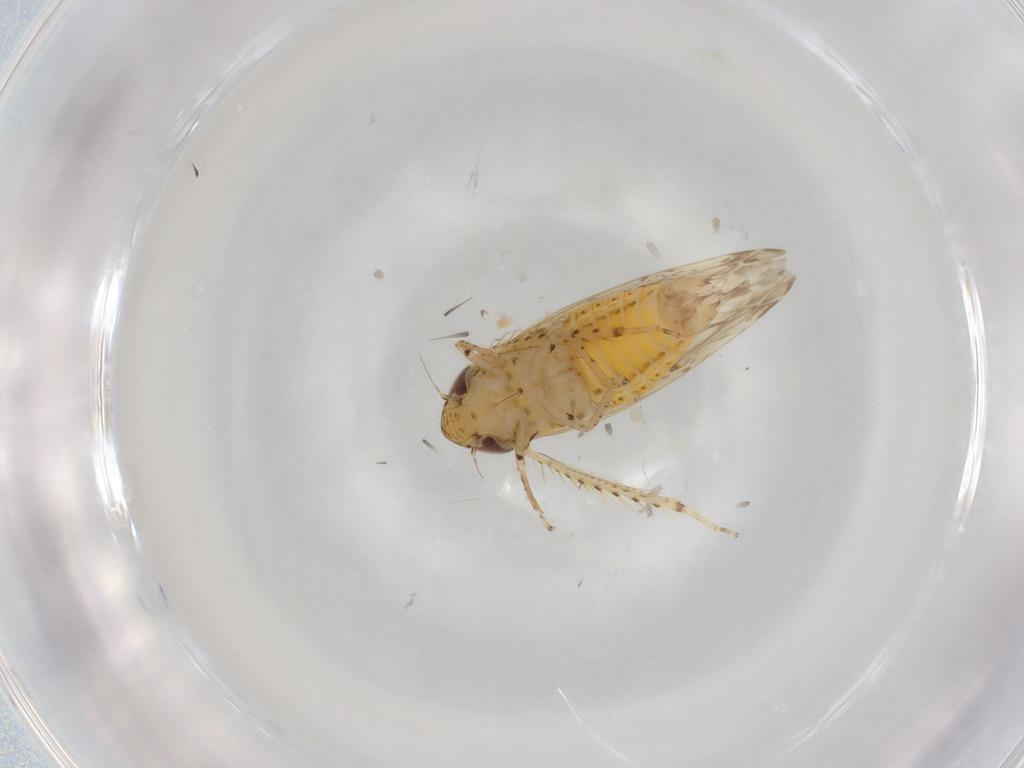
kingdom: Animalia
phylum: Arthropoda
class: Insecta
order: Hemiptera
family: Cicadellidae
